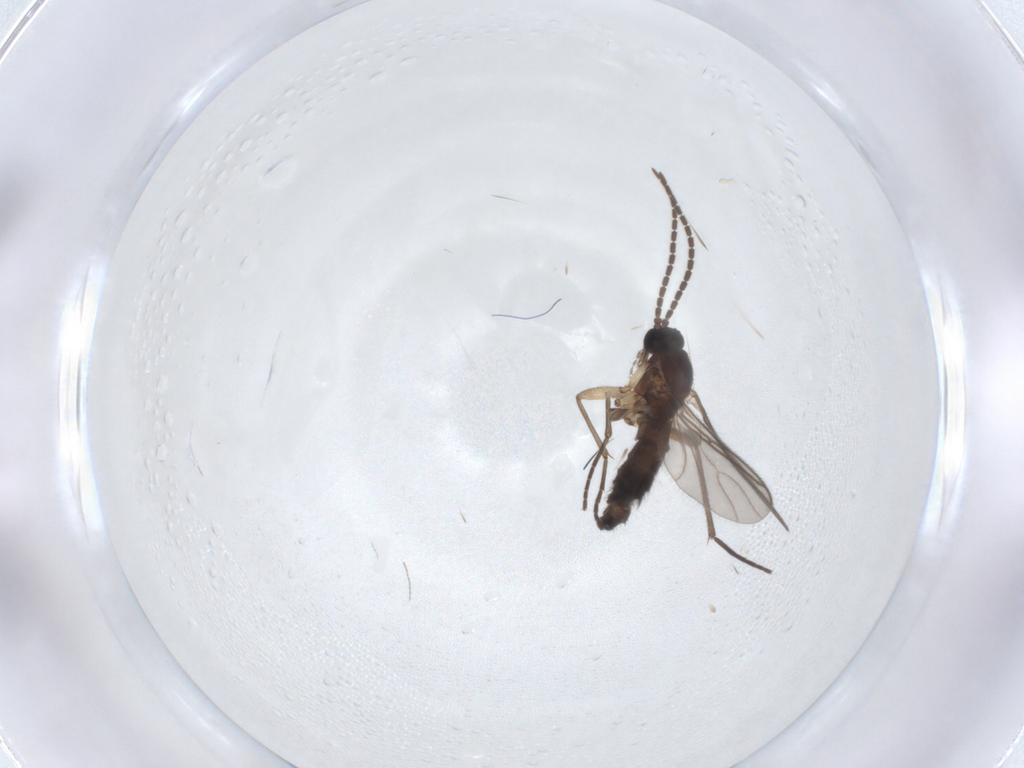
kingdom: Animalia
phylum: Arthropoda
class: Insecta
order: Diptera
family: Sciaridae
